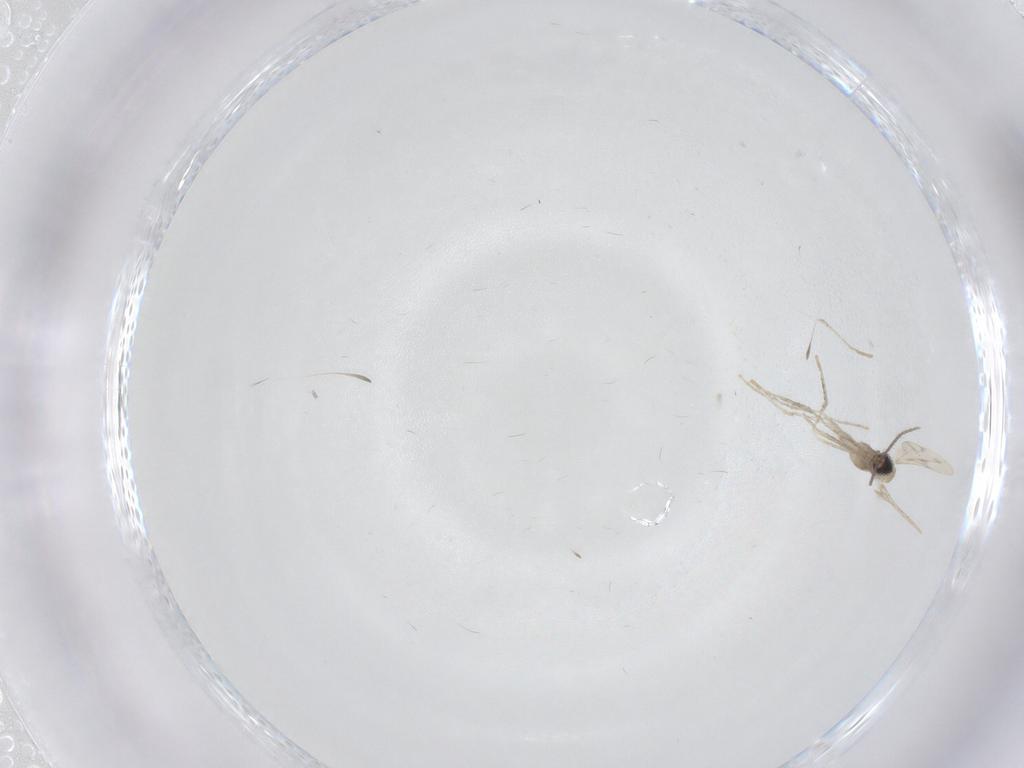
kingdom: Animalia
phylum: Arthropoda
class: Insecta
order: Diptera
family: Cecidomyiidae
